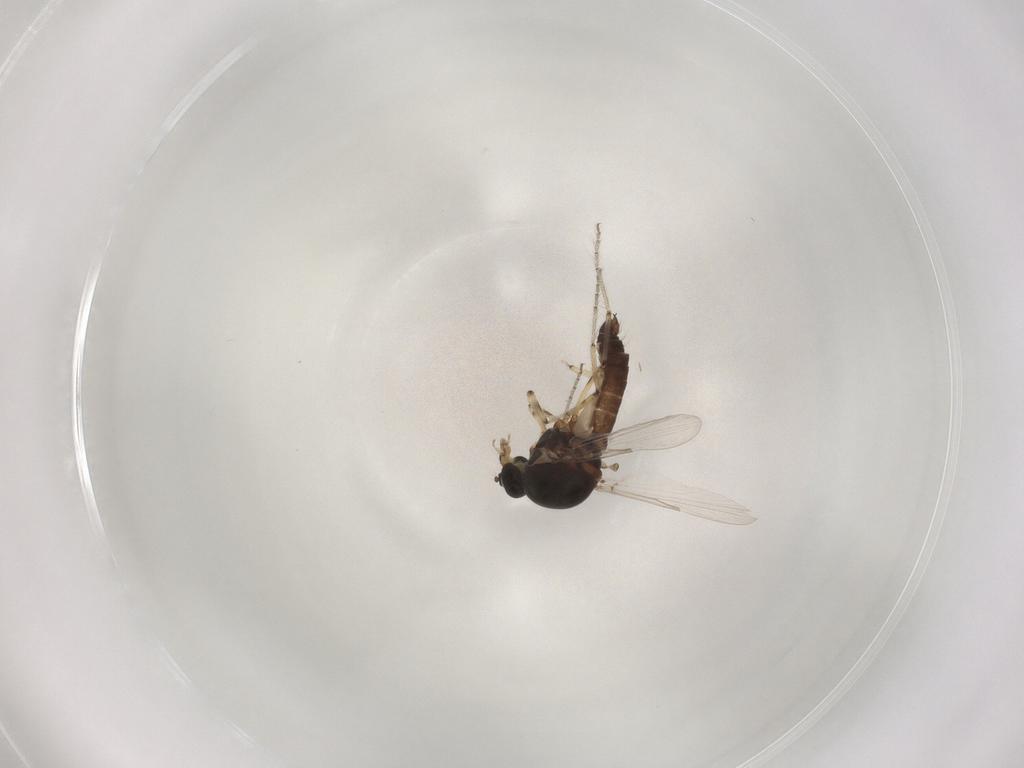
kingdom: Animalia
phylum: Arthropoda
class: Insecta
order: Diptera
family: Ceratopogonidae
